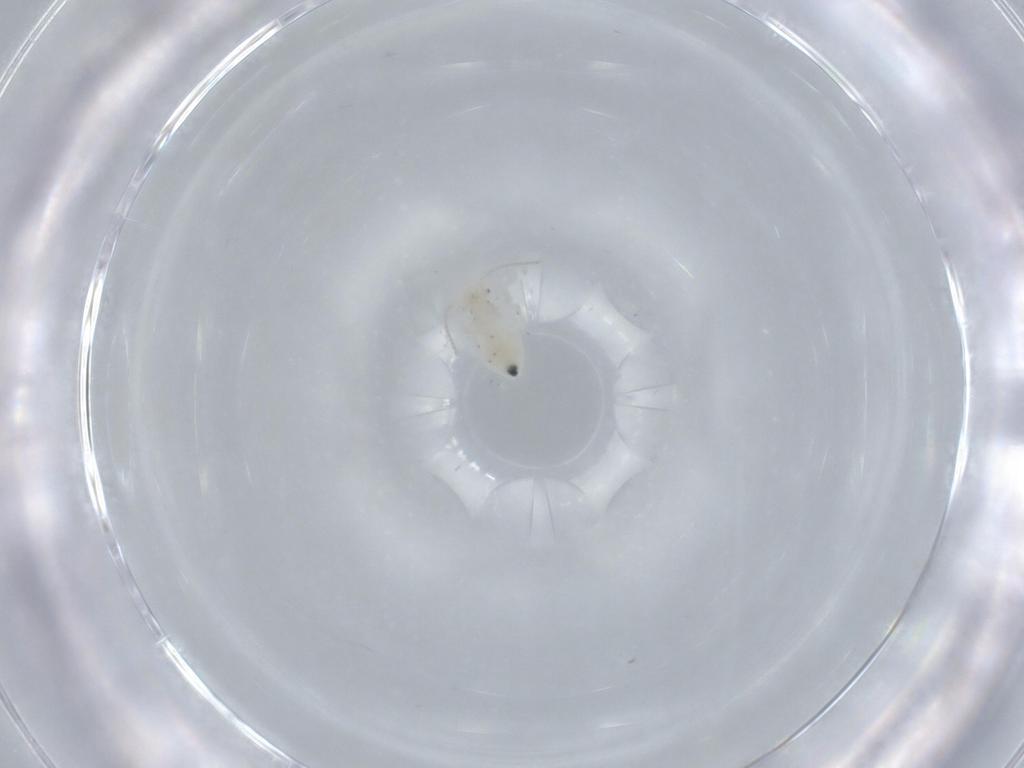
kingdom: Animalia
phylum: Arthropoda
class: Insecta
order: Psocodea
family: Caeciliusidae
